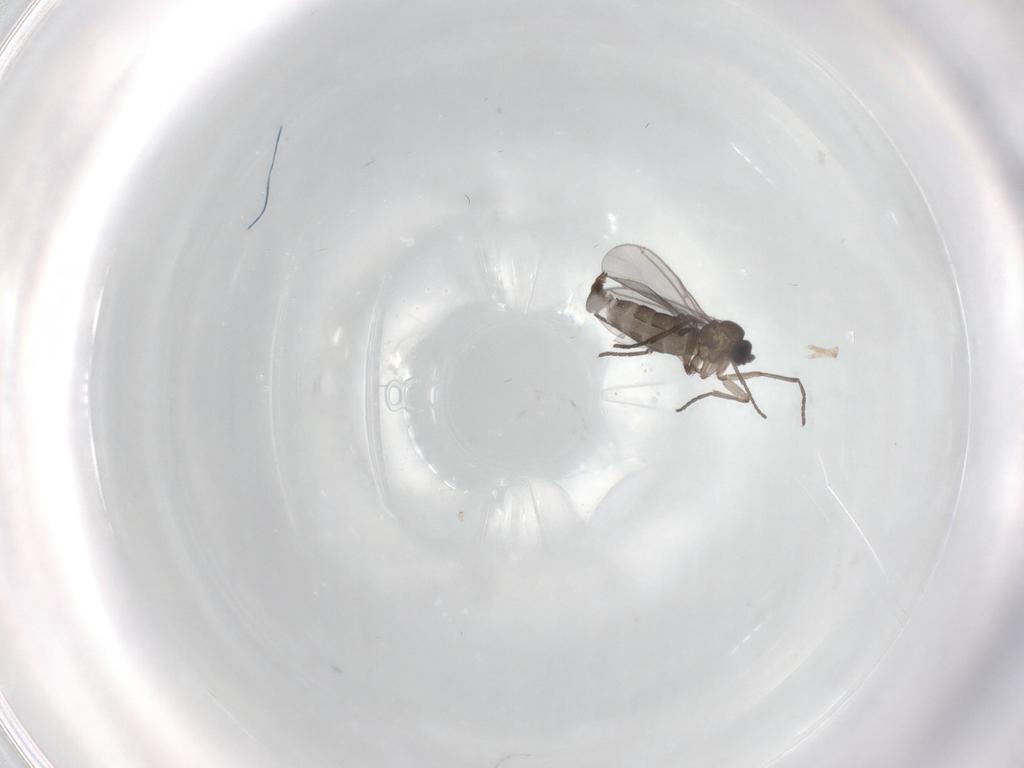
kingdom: Animalia
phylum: Arthropoda
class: Insecta
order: Diptera
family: Sciaridae
